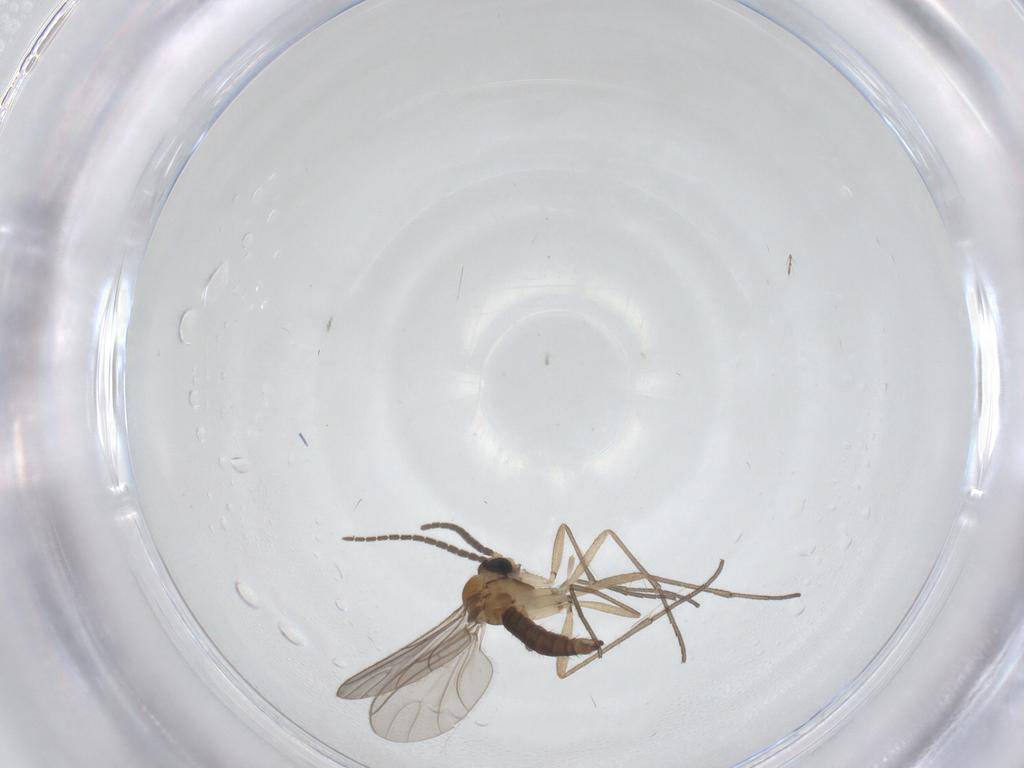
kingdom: Animalia
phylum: Arthropoda
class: Insecta
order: Diptera
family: Sciaridae
